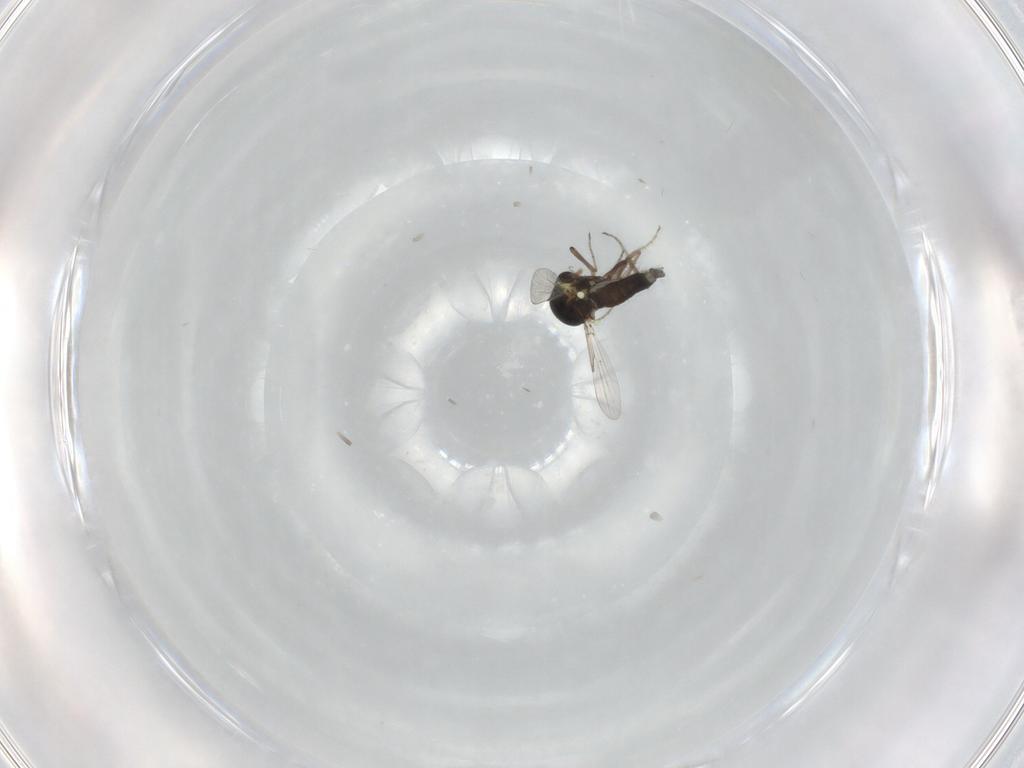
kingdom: Animalia
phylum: Arthropoda
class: Insecta
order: Diptera
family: Ceratopogonidae
